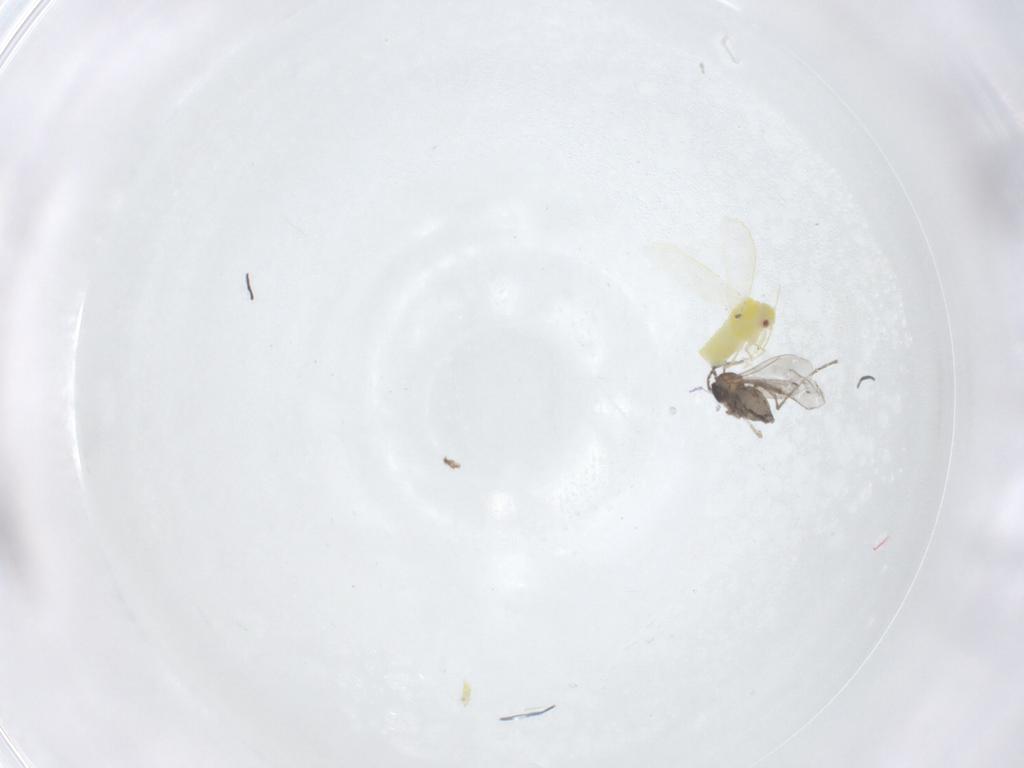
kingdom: Animalia
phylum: Arthropoda
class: Insecta
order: Hemiptera
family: Aleyrodidae
